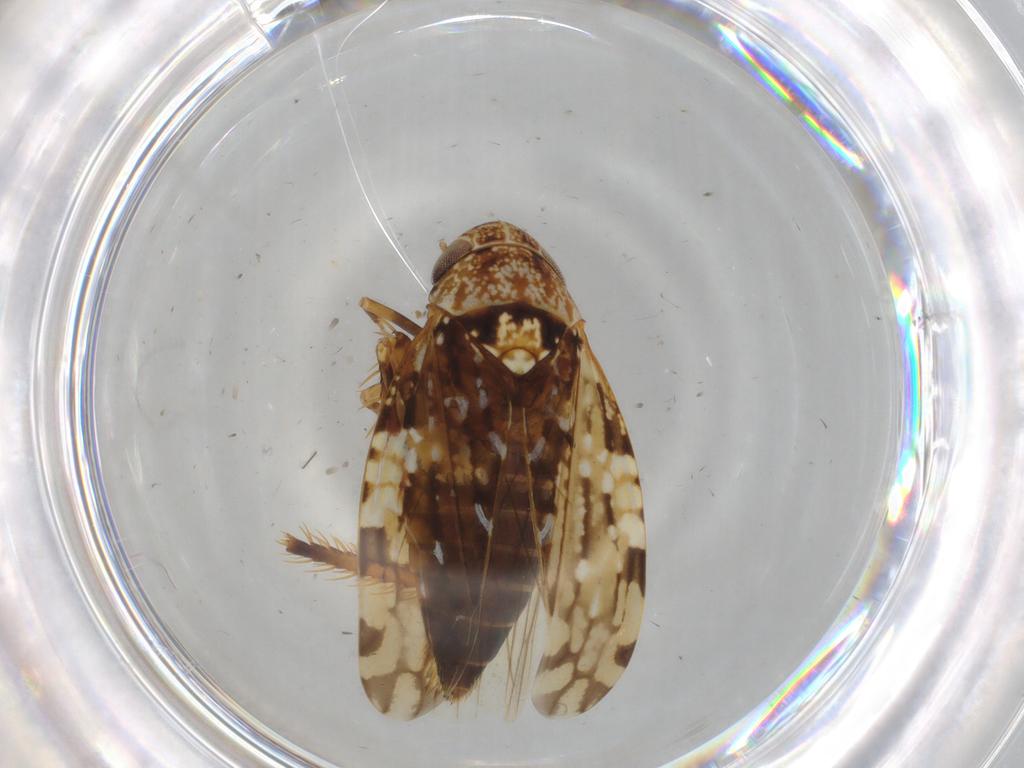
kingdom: Animalia
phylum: Arthropoda
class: Insecta
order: Hemiptera
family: Cicadellidae
